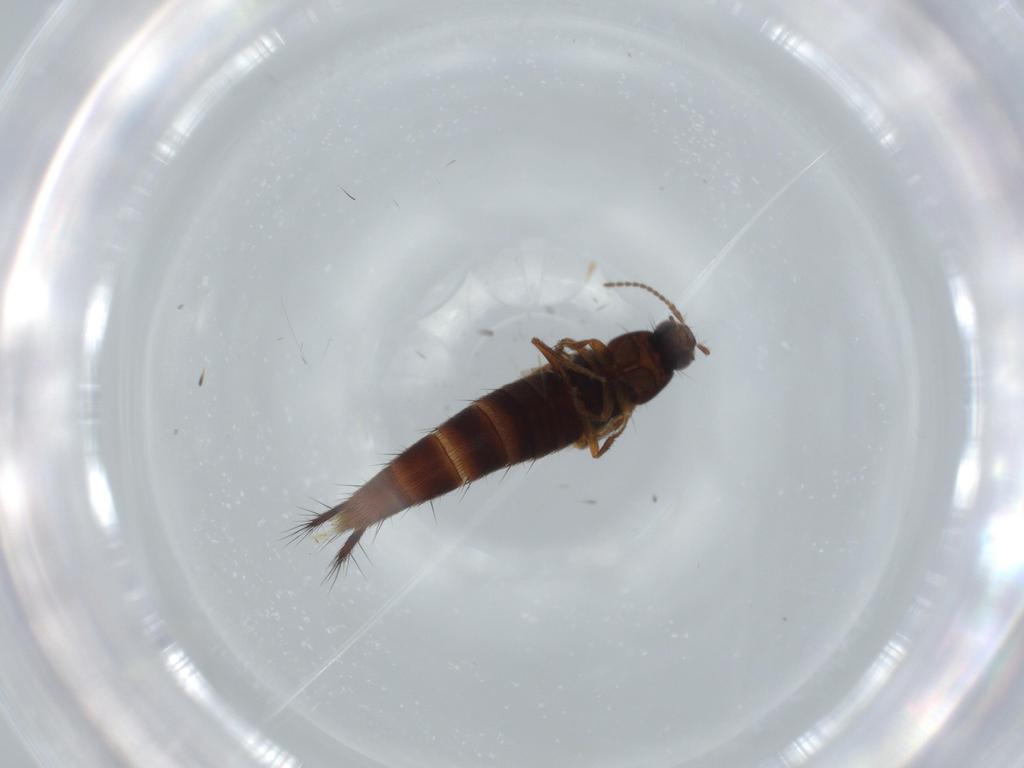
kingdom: Animalia
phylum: Arthropoda
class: Insecta
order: Coleoptera
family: Staphylinidae
